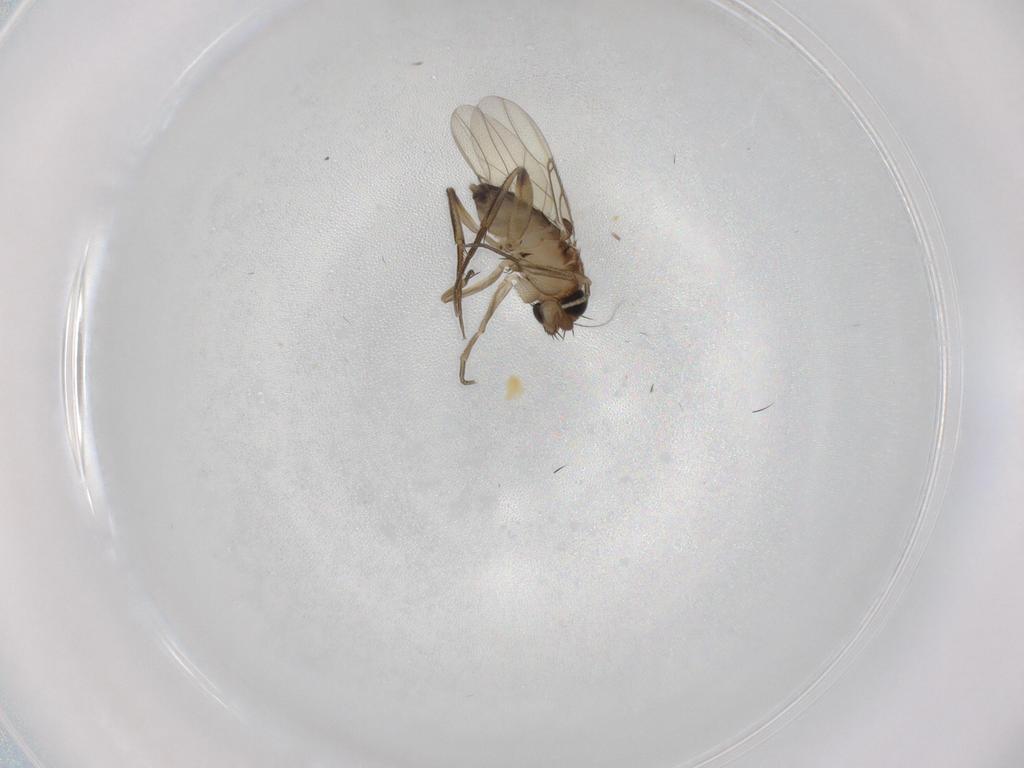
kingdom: Animalia
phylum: Arthropoda
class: Insecta
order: Diptera
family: Phoridae
